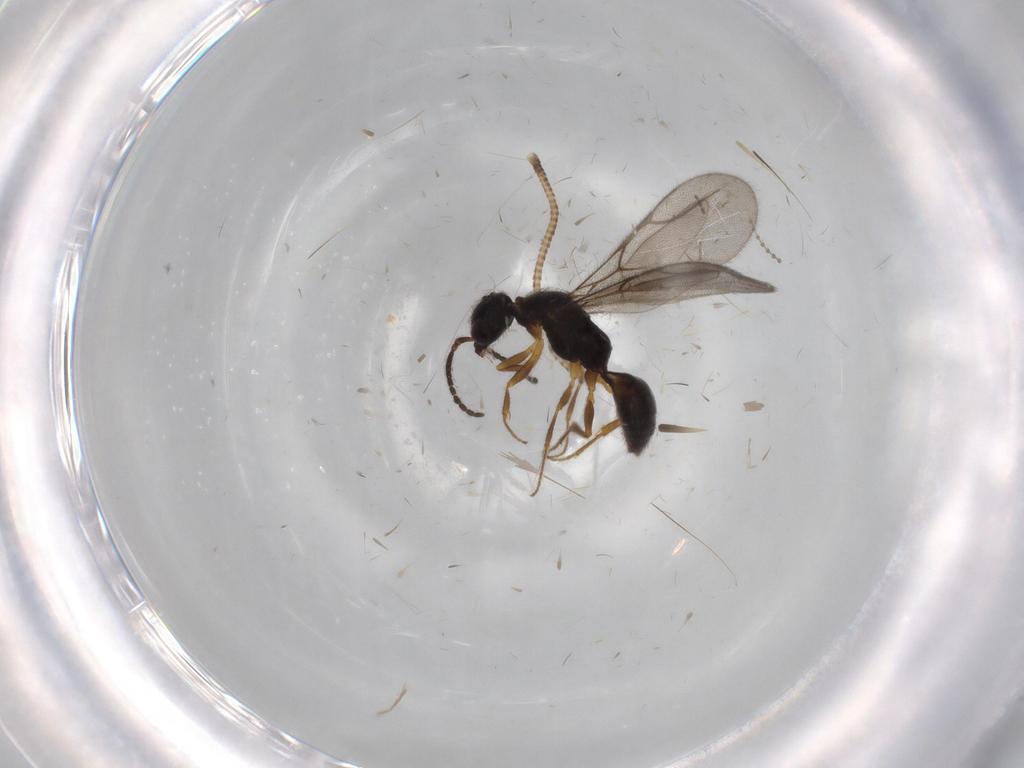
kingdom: Animalia
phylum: Arthropoda
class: Insecta
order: Hymenoptera
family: Bethylidae
